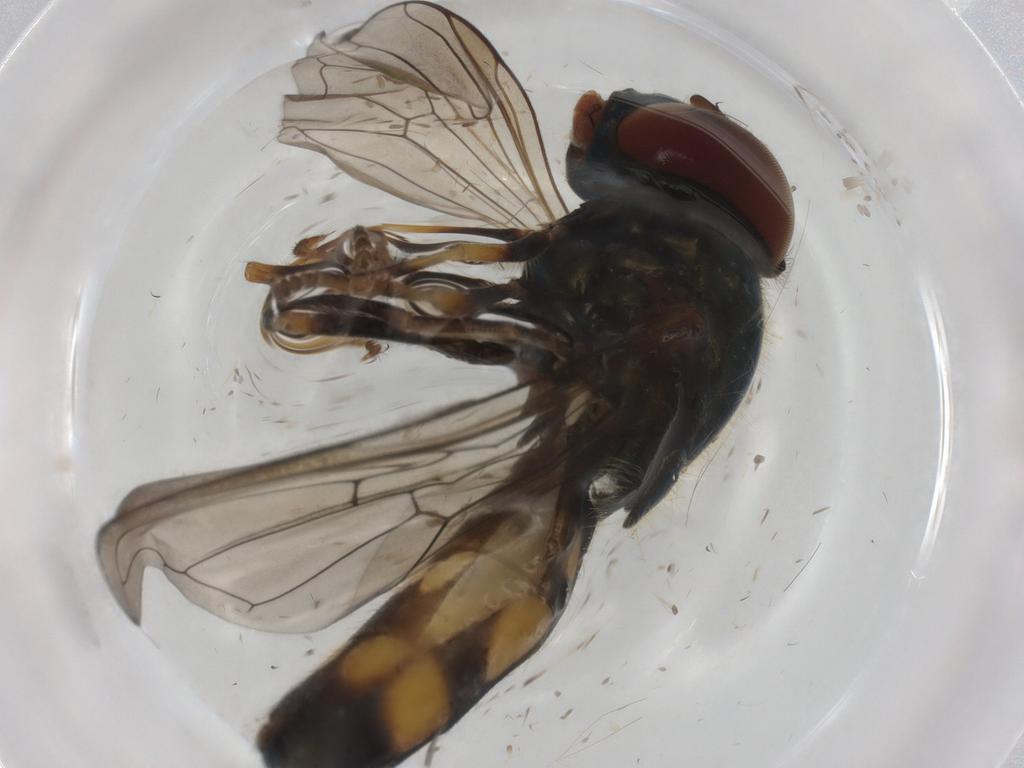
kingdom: Animalia
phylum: Arthropoda
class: Insecta
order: Diptera
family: Syrphidae
